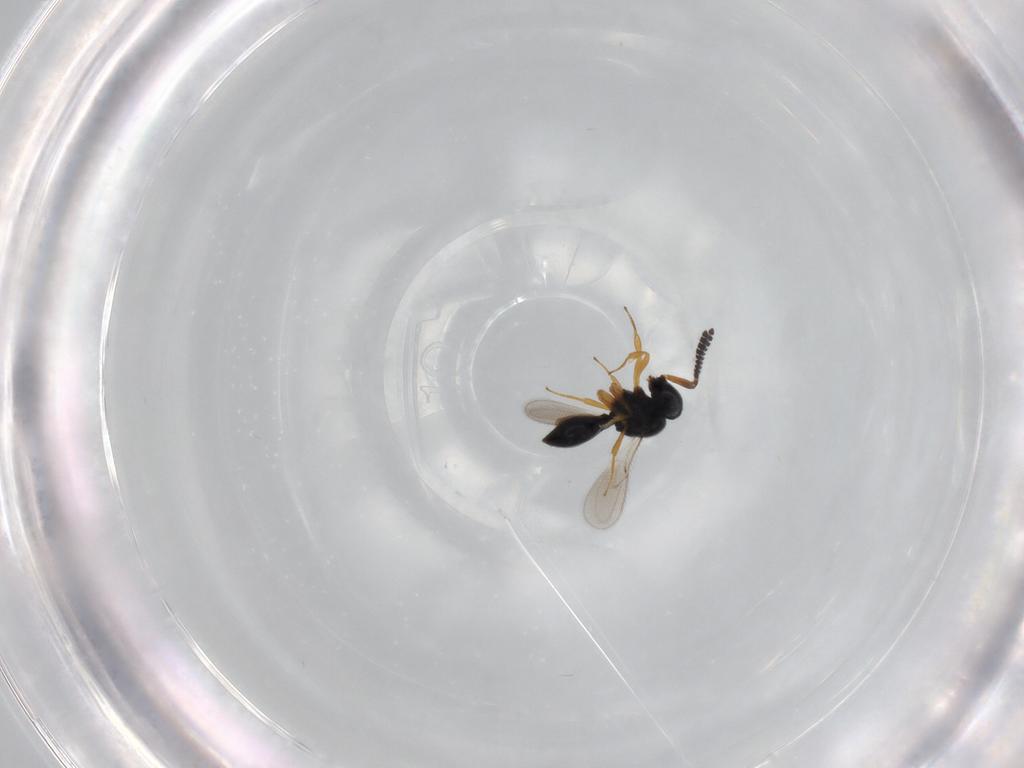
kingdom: Animalia
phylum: Arthropoda
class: Insecta
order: Hymenoptera
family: Scelionidae
